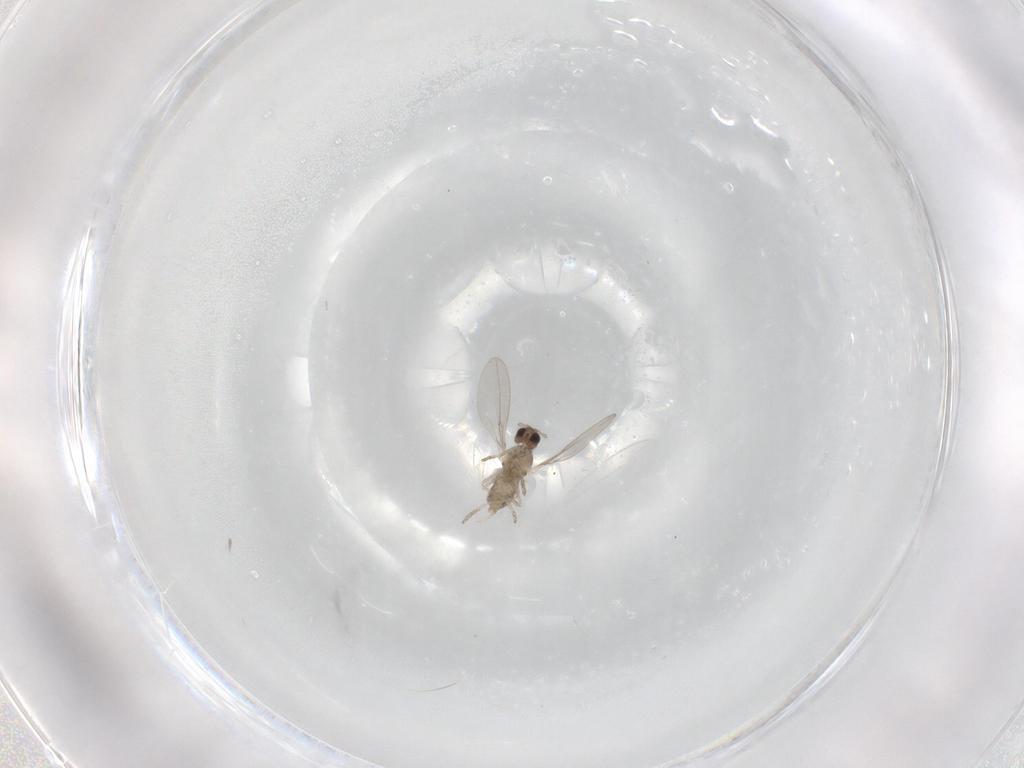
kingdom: Animalia
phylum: Arthropoda
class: Insecta
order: Diptera
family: Cecidomyiidae
